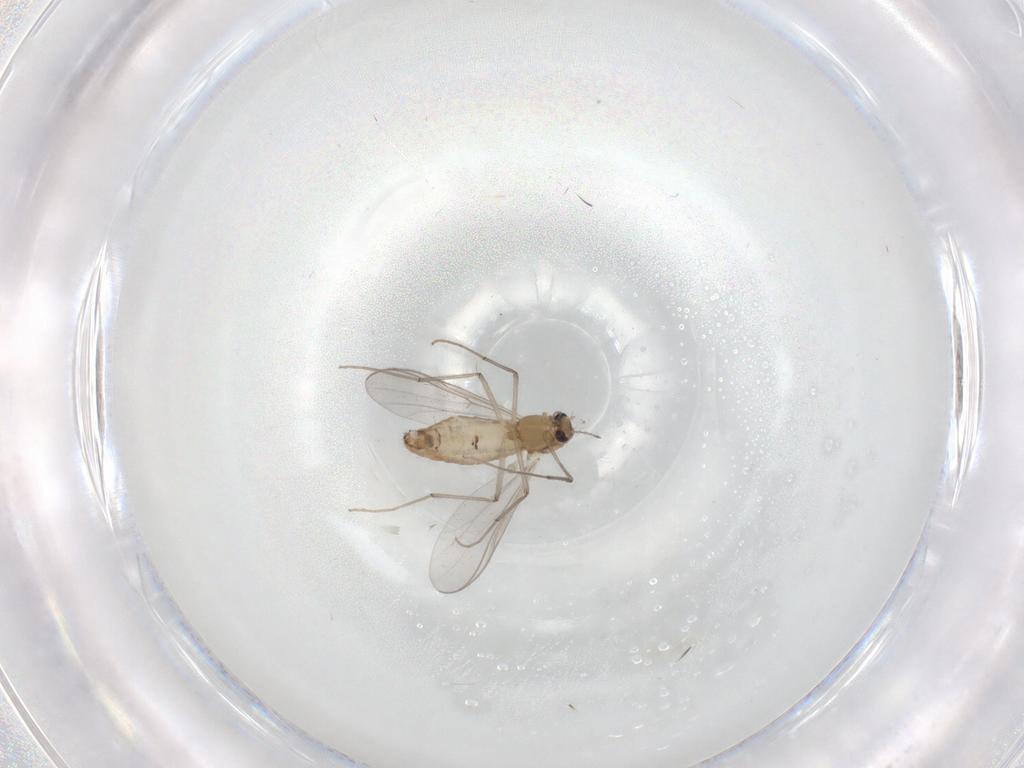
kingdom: Animalia
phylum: Arthropoda
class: Insecta
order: Diptera
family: Chironomidae
